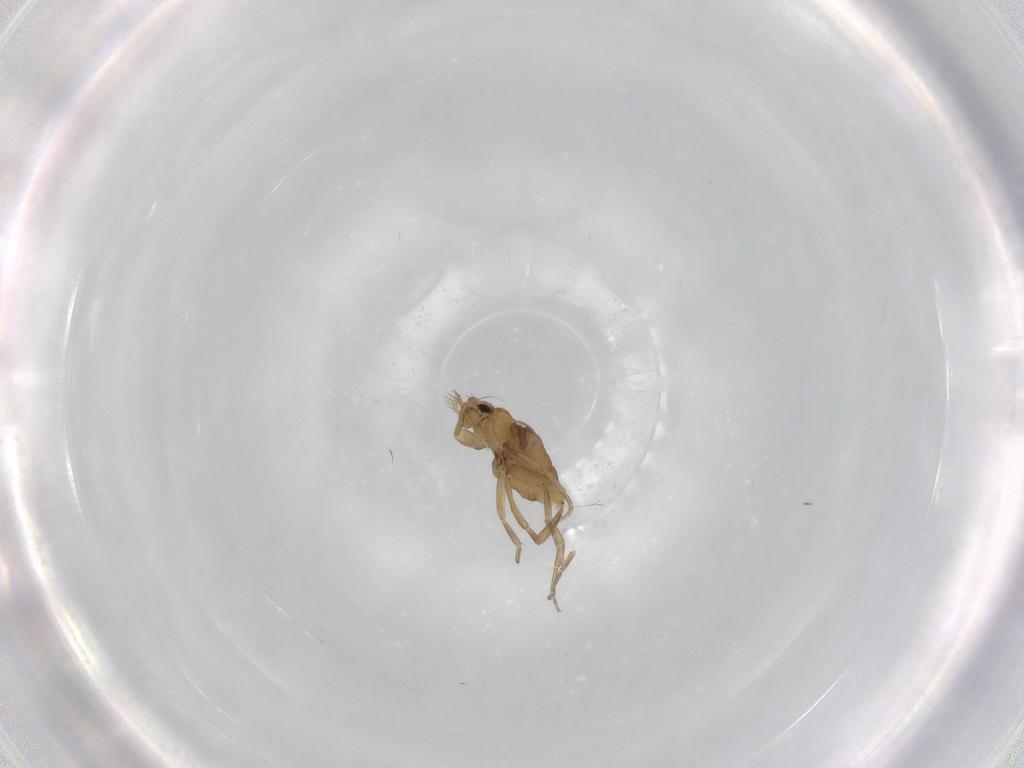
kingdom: Animalia
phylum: Arthropoda
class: Insecta
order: Diptera
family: Phoridae
